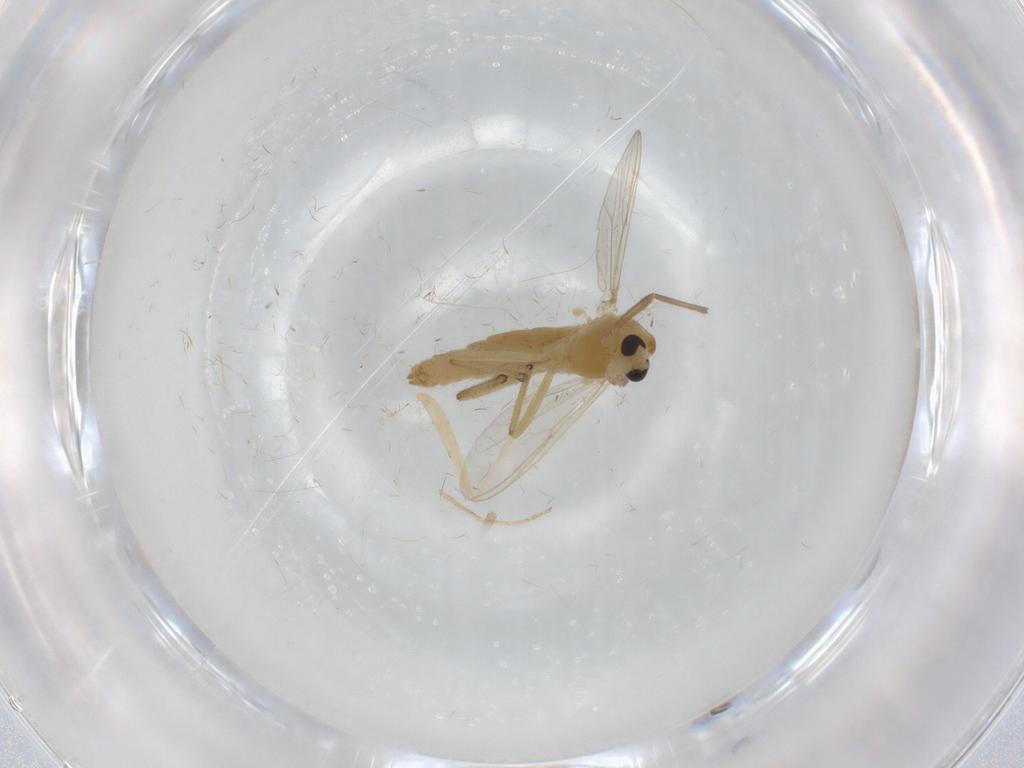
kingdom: Animalia
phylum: Arthropoda
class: Insecta
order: Diptera
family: Chironomidae
